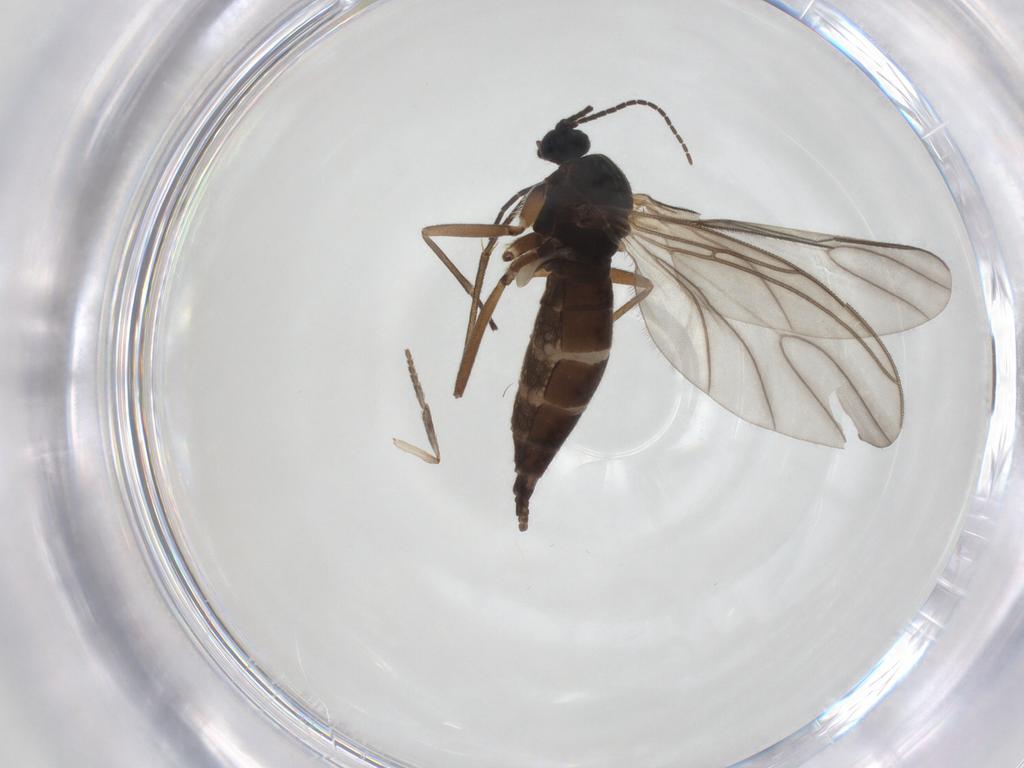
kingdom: Animalia
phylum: Arthropoda
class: Insecta
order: Diptera
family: Sciaridae
